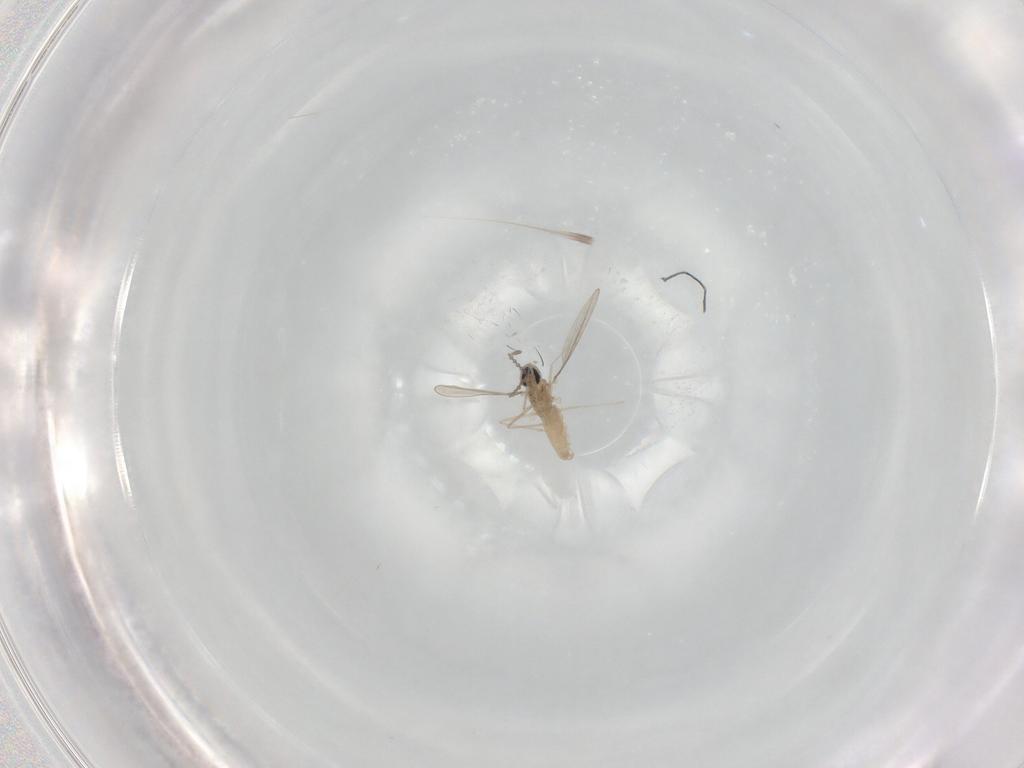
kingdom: Animalia
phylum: Arthropoda
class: Insecta
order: Diptera
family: Cecidomyiidae
